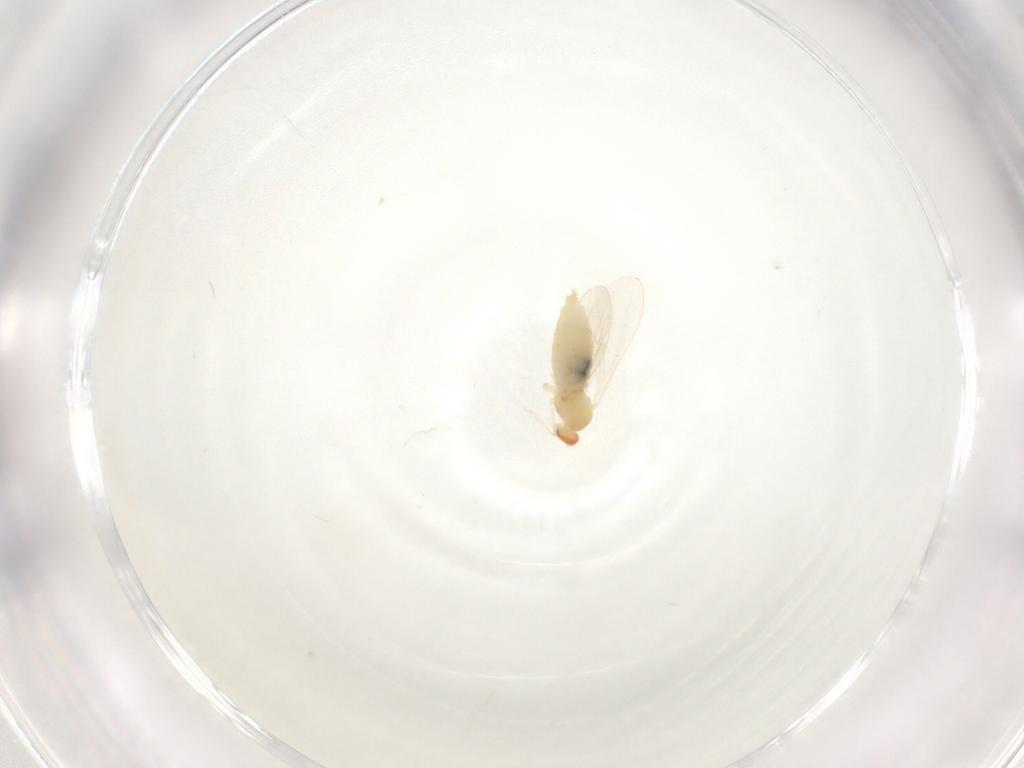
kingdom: Animalia
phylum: Arthropoda
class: Insecta
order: Diptera
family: Cecidomyiidae
